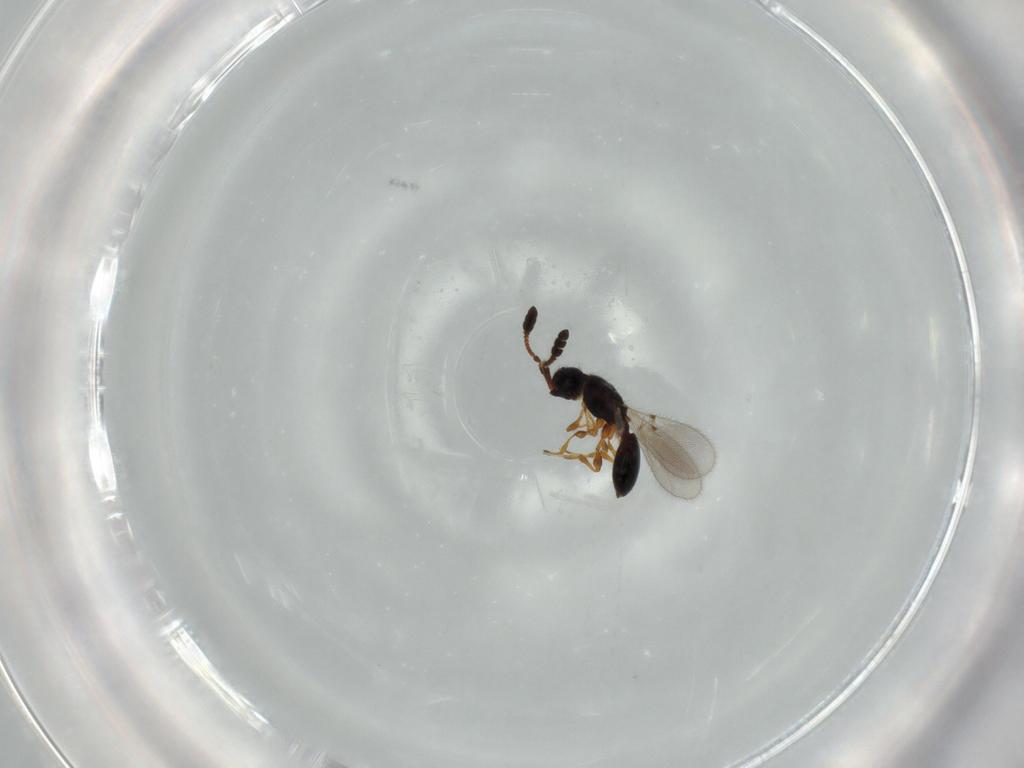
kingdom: Animalia
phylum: Arthropoda
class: Insecta
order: Hymenoptera
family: Diapriidae
